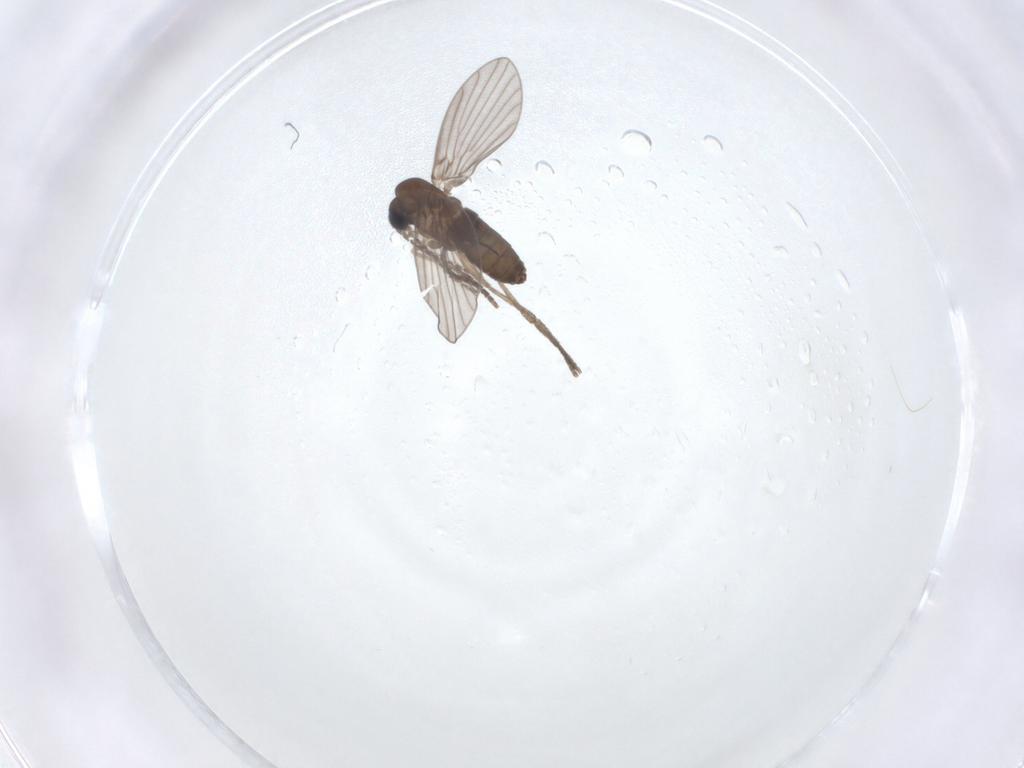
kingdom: Animalia
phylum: Arthropoda
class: Insecta
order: Diptera
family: Psychodidae
